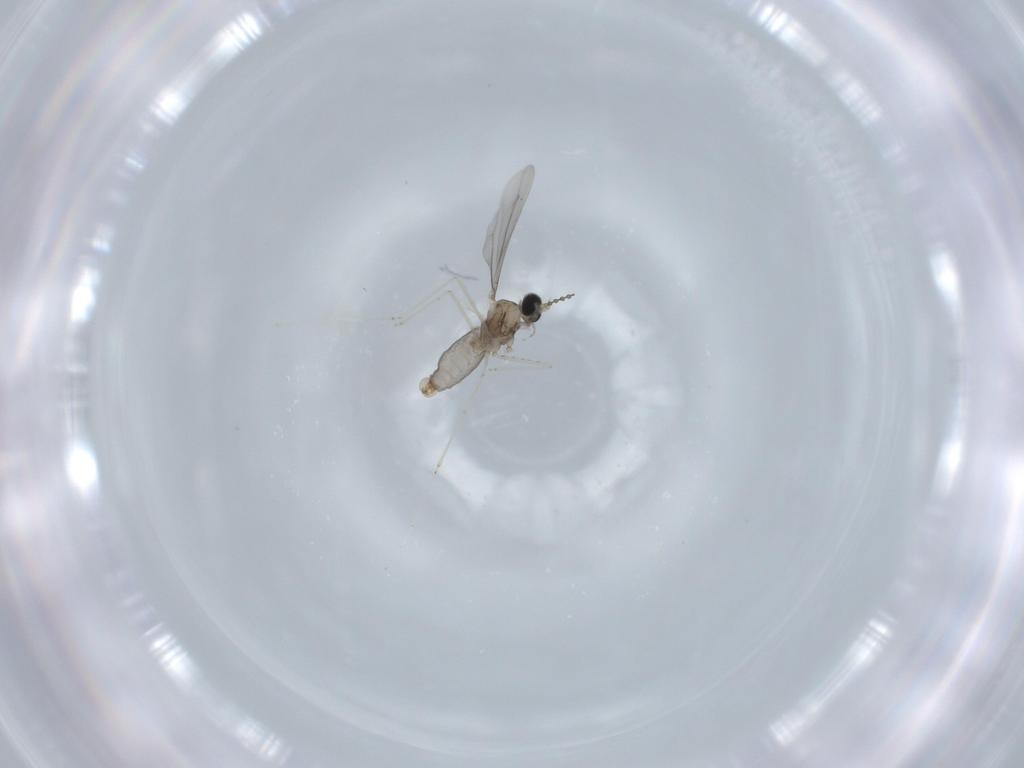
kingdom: Animalia
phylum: Arthropoda
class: Insecta
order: Diptera
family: Cecidomyiidae
